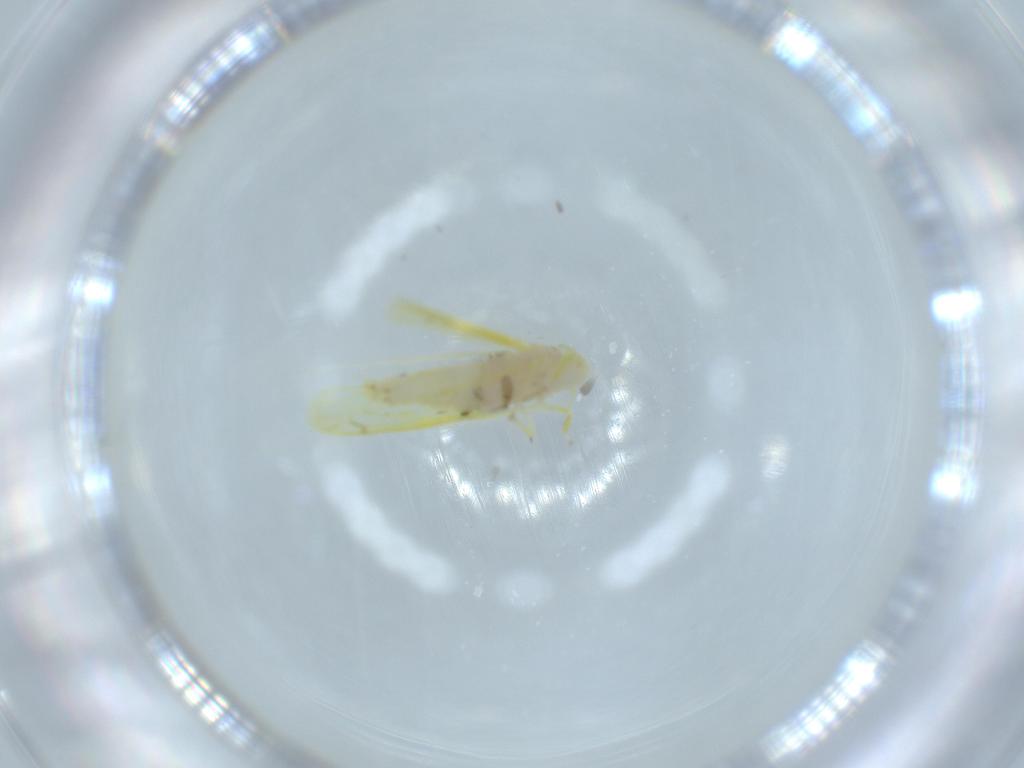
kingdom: Animalia
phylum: Arthropoda
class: Insecta
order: Hemiptera
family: Cicadellidae
